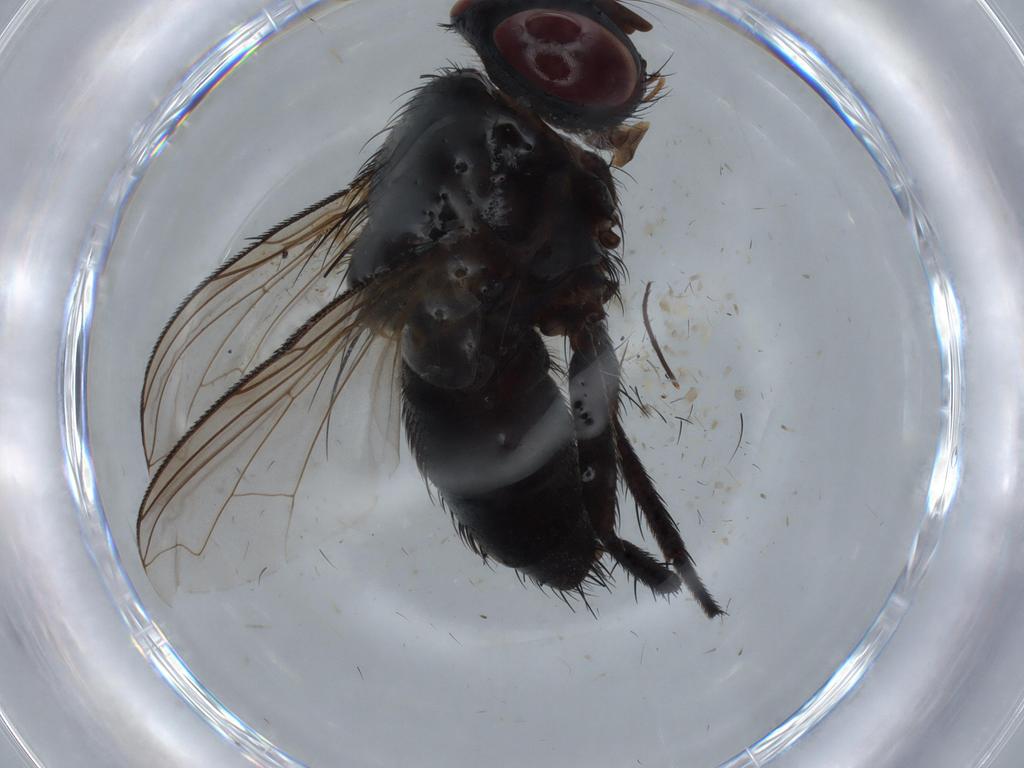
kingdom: Animalia
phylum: Arthropoda
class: Insecta
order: Diptera
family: Tachinidae
